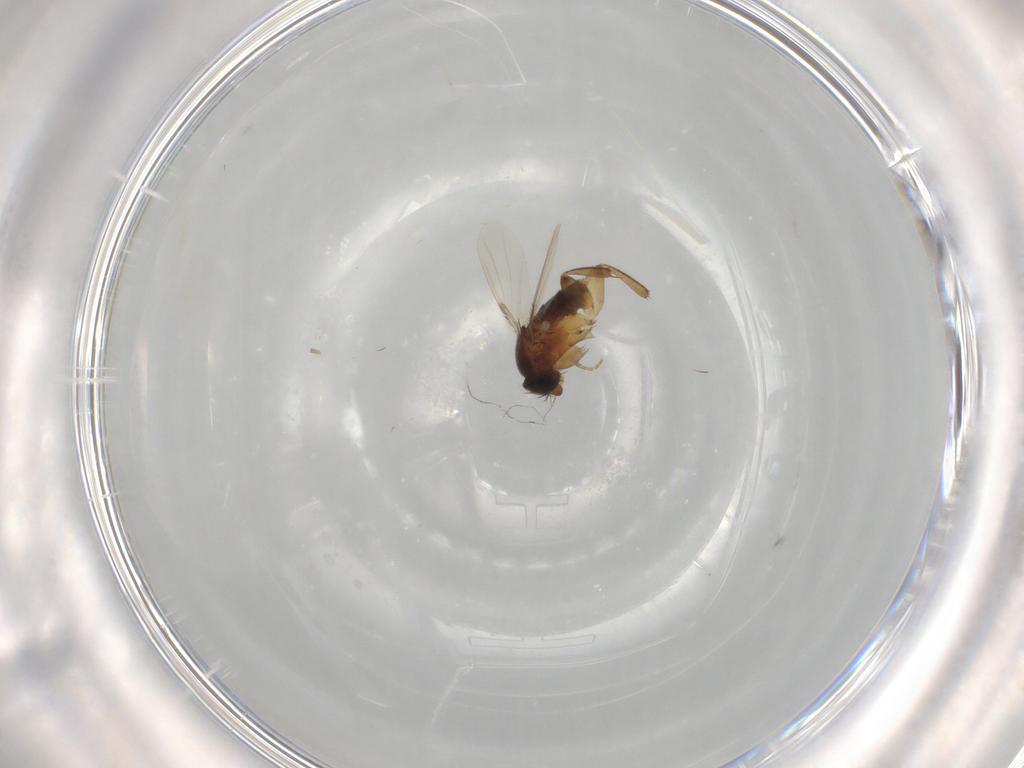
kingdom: Animalia
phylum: Arthropoda
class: Insecta
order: Diptera
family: Phoridae
